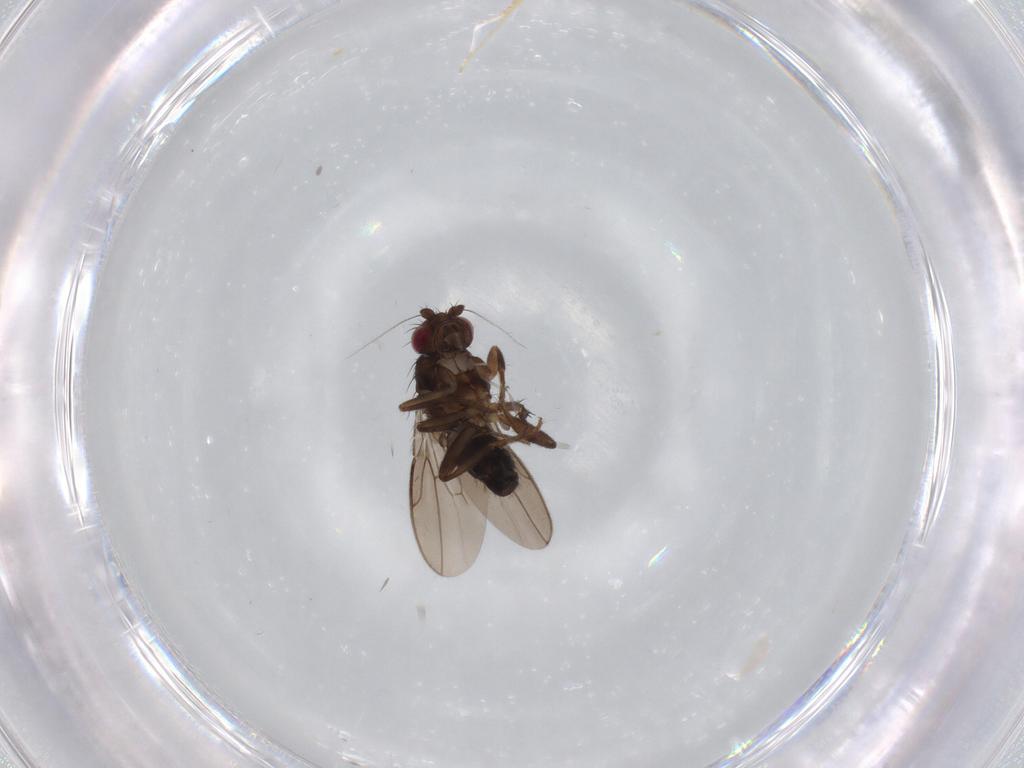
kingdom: Animalia
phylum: Arthropoda
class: Insecta
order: Diptera
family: Sphaeroceridae
